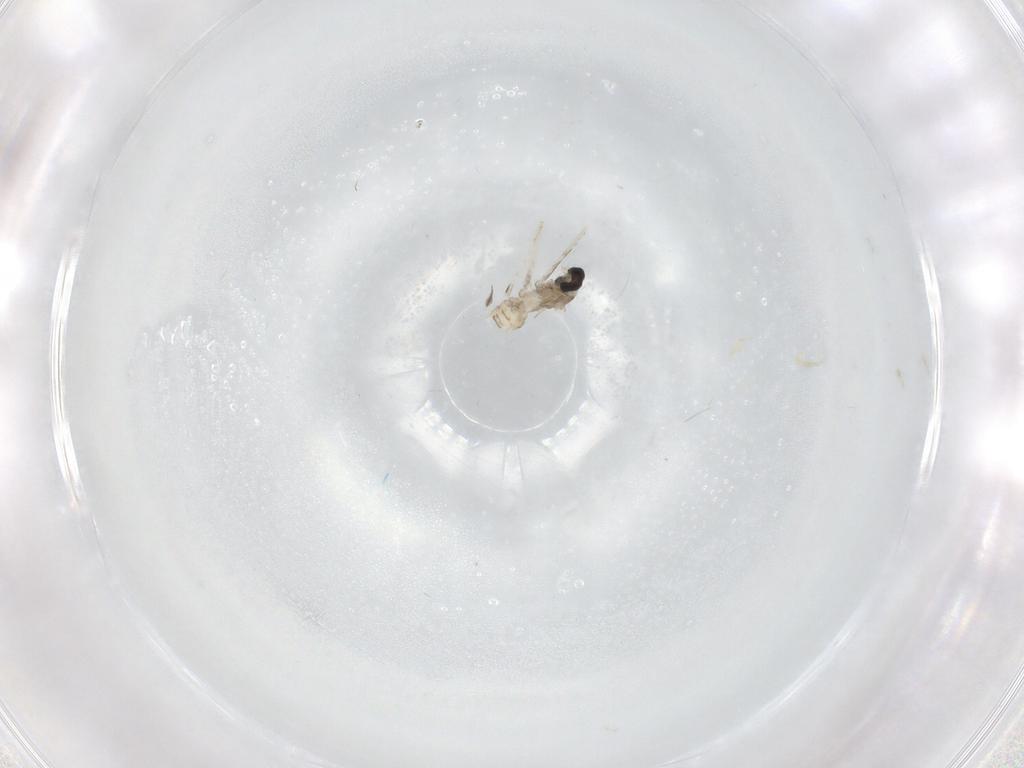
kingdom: Animalia
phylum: Arthropoda
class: Insecta
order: Diptera
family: Cecidomyiidae
